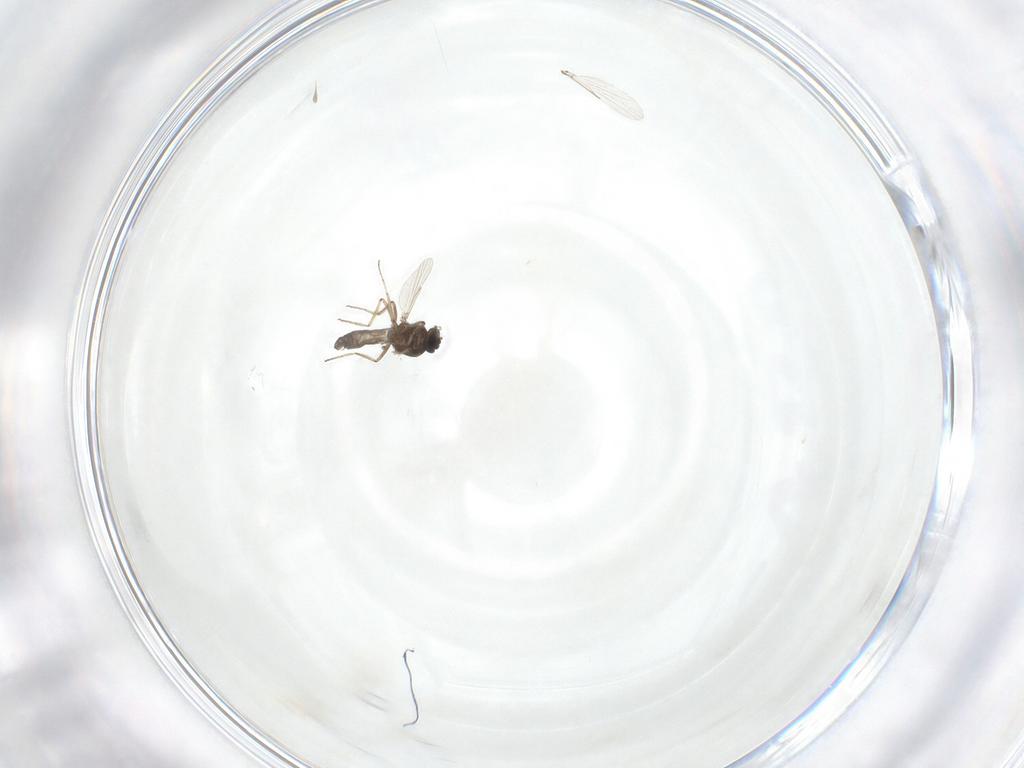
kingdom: Animalia
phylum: Arthropoda
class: Insecta
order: Diptera
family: Ceratopogonidae
